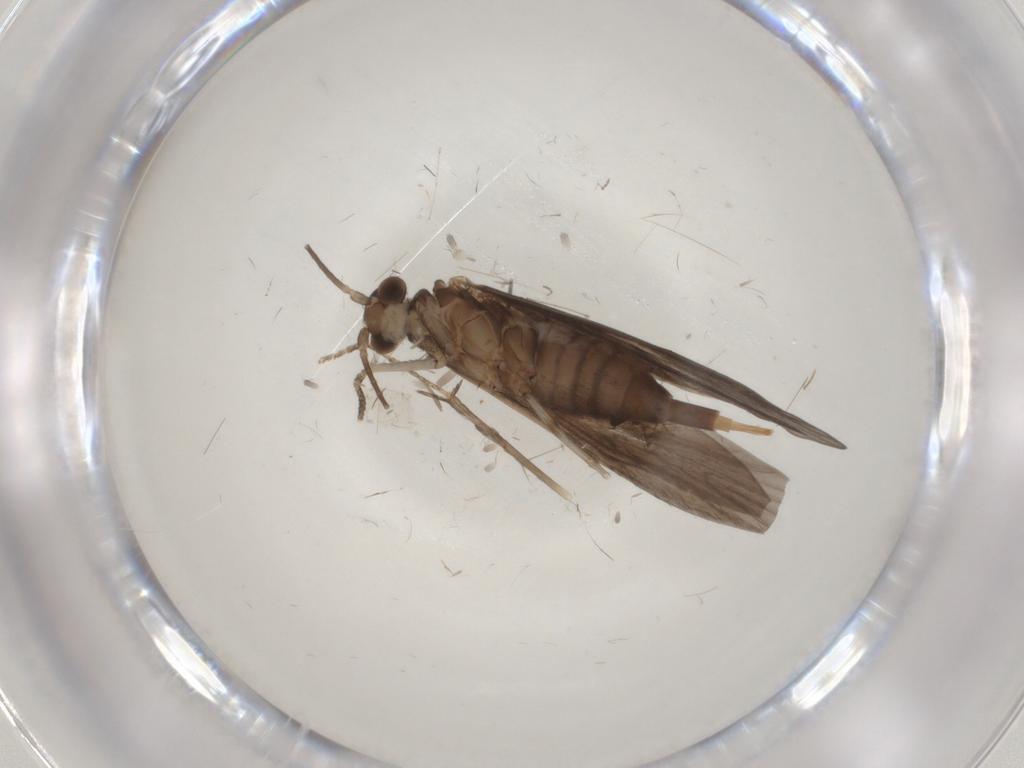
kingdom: Animalia
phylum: Arthropoda
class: Insecta
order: Trichoptera
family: Xiphocentronidae
